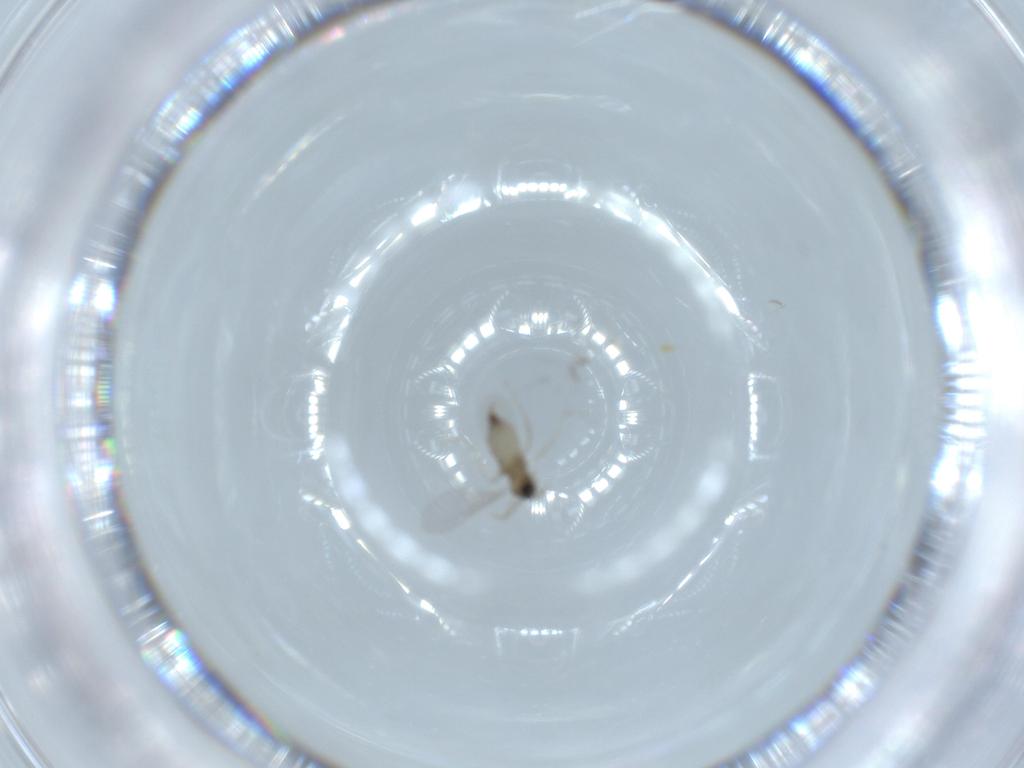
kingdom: Animalia
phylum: Arthropoda
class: Insecta
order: Diptera
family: Cecidomyiidae
